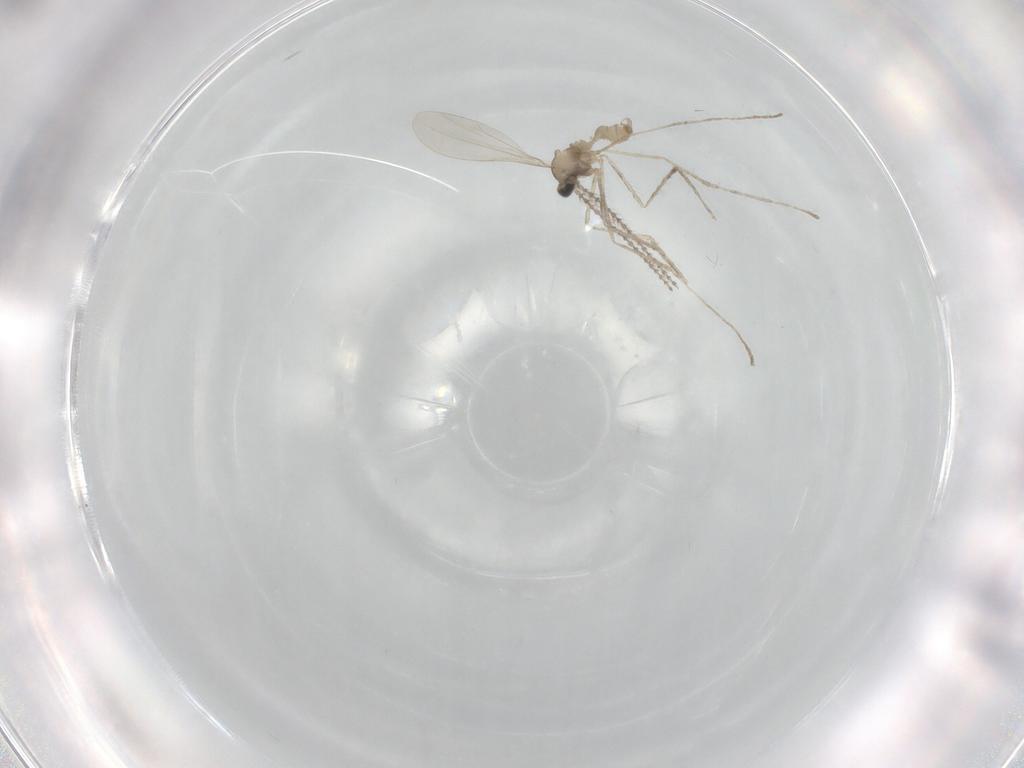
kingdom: Animalia
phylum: Arthropoda
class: Insecta
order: Diptera
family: Cecidomyiidae
